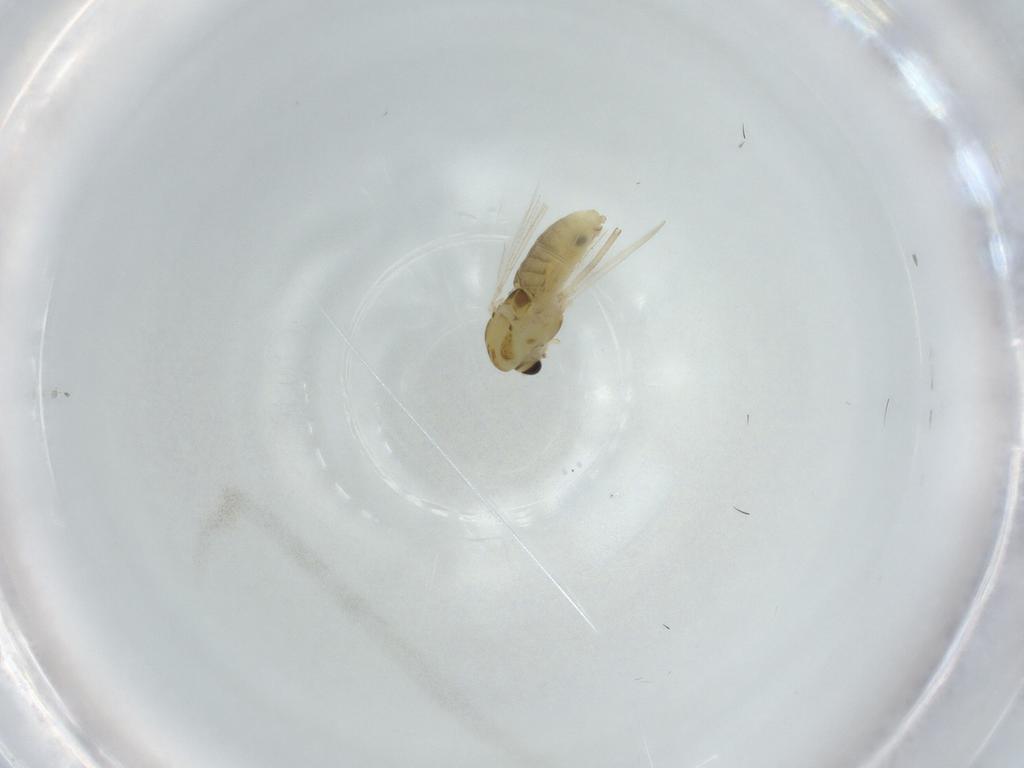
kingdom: Animalia
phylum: Arthropoda
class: Insecta
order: Diptera
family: Chironomidae
